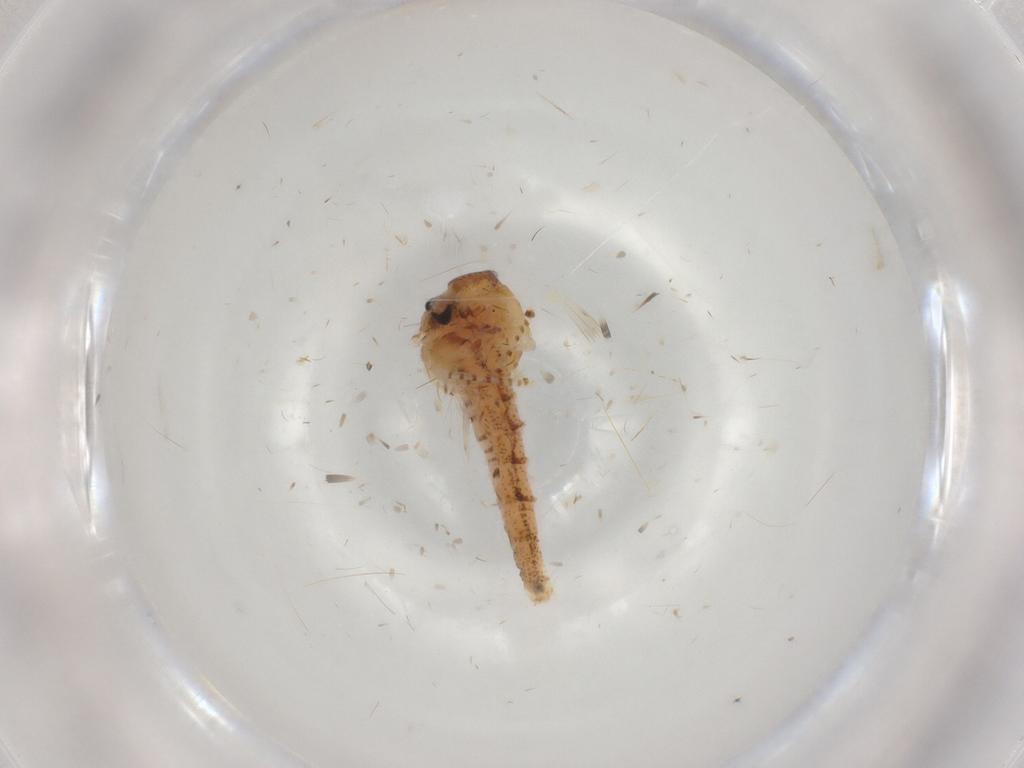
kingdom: Animalia
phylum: Arthropoda
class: Insecta
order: Diptera
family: Chaoboridae
